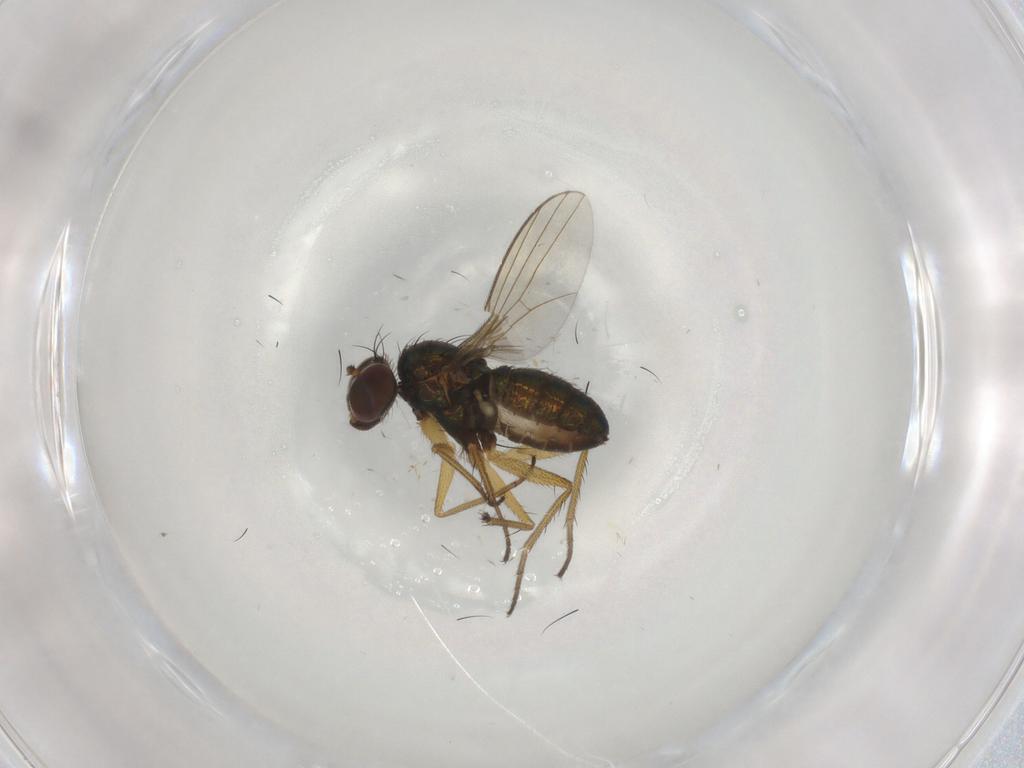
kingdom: Animalia
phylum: Arthropoda
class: Insecta
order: Diptera
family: Dolichopodidae
